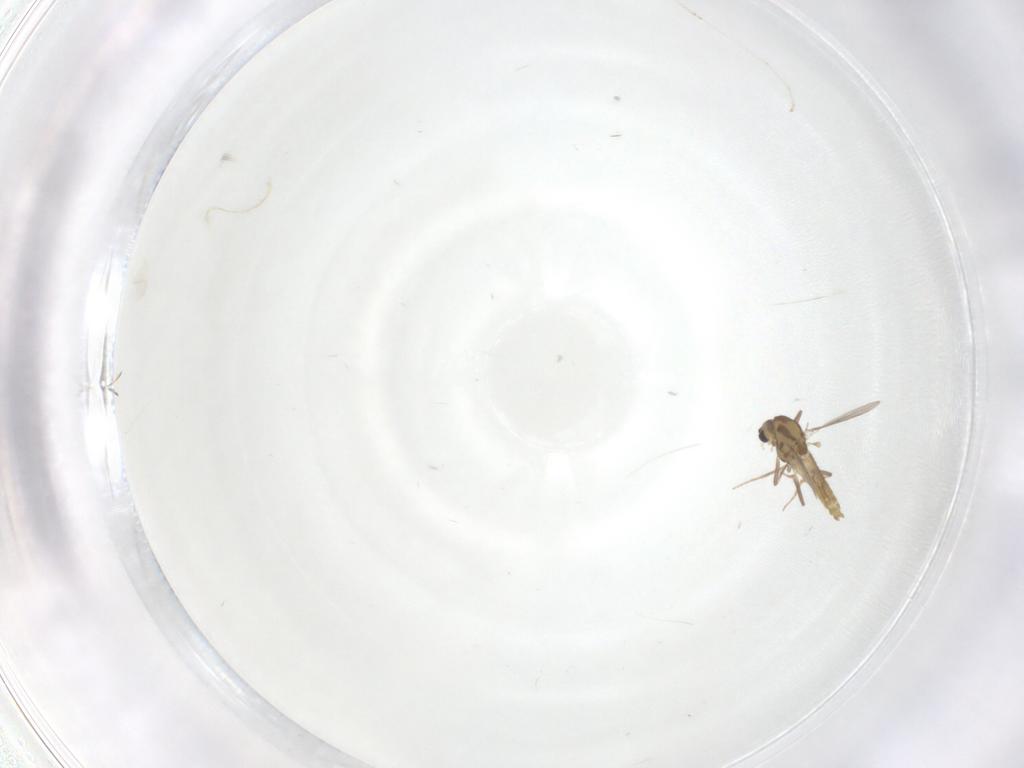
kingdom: Animalia
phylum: Arthropoda
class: Insecta
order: Diptera
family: Chironomidae
